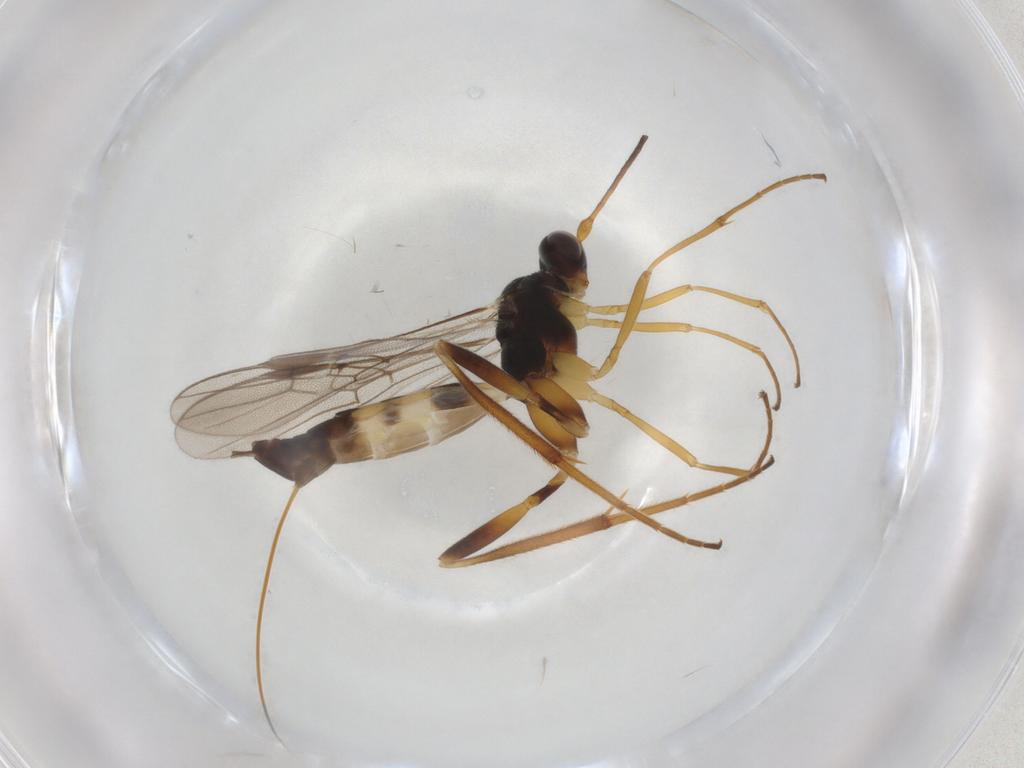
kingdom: Animalia
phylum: Arthropoda
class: Insecta
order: Hymenoptera
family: Braconidae
